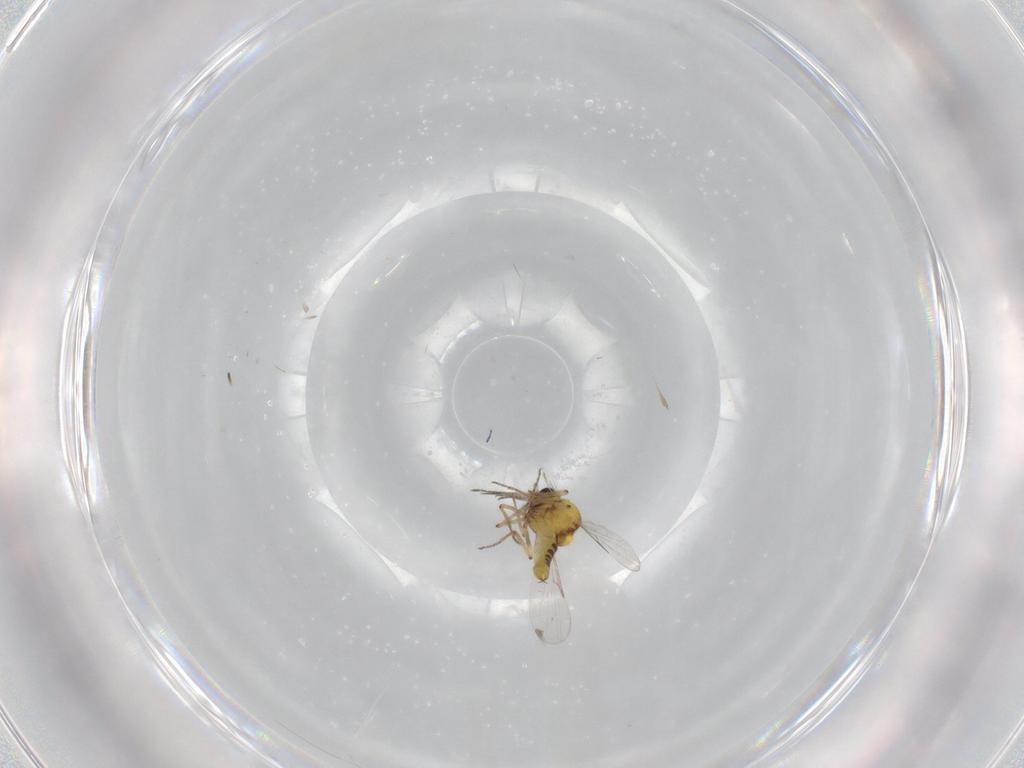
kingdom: Animalia
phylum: Arthropoda
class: Insecta
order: Diptera
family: Ceratopogonidae
